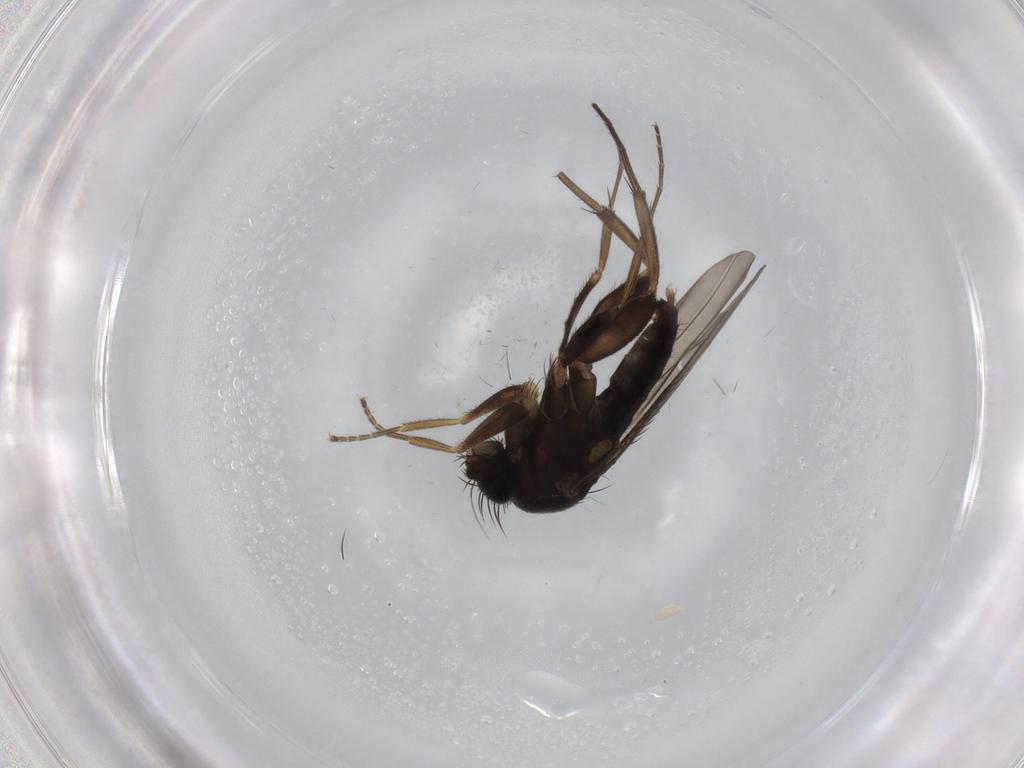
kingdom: Animalia
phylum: Arthropoda
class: Insecta
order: Diptera
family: Phoridae
